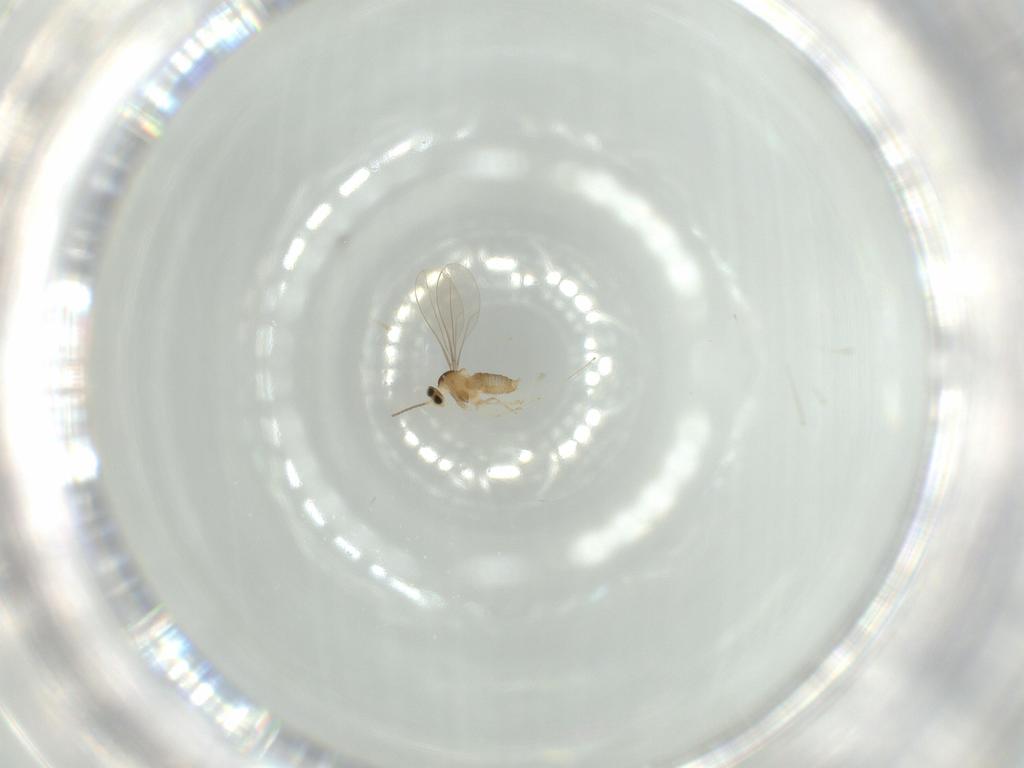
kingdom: Animalia
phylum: Arthropoda
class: Insecta
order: Diptera
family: Cecidomyiidae
